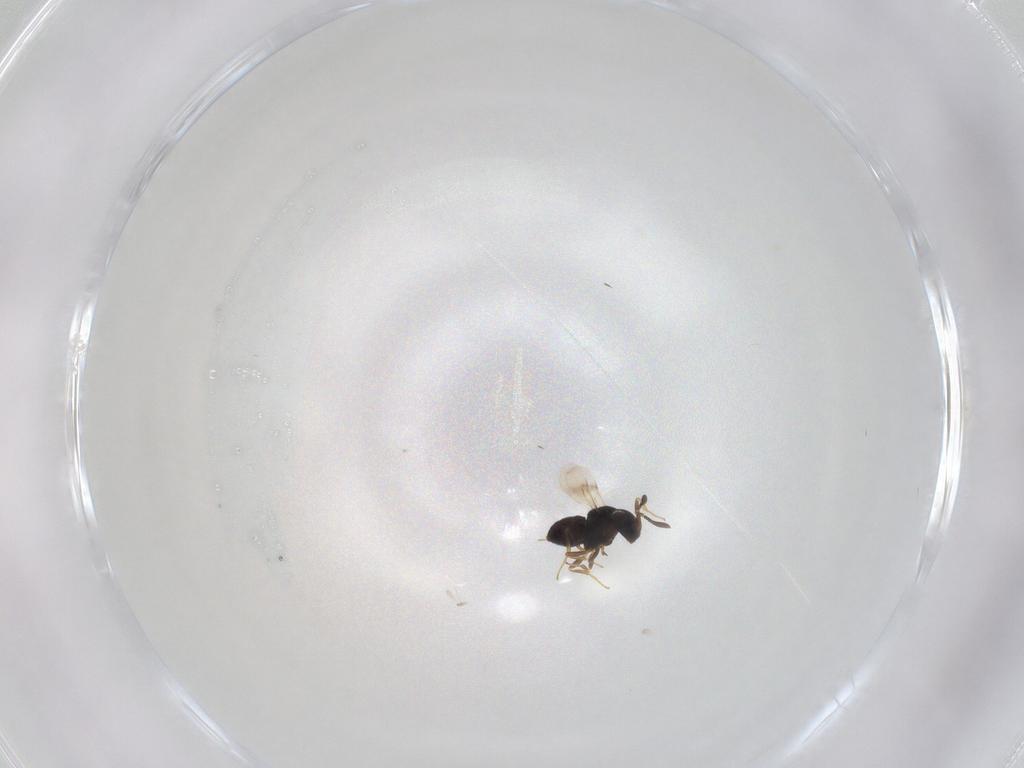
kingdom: Animalia
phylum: Arthropoda
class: Insecta
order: Hymenoptera
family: Scelionidae
